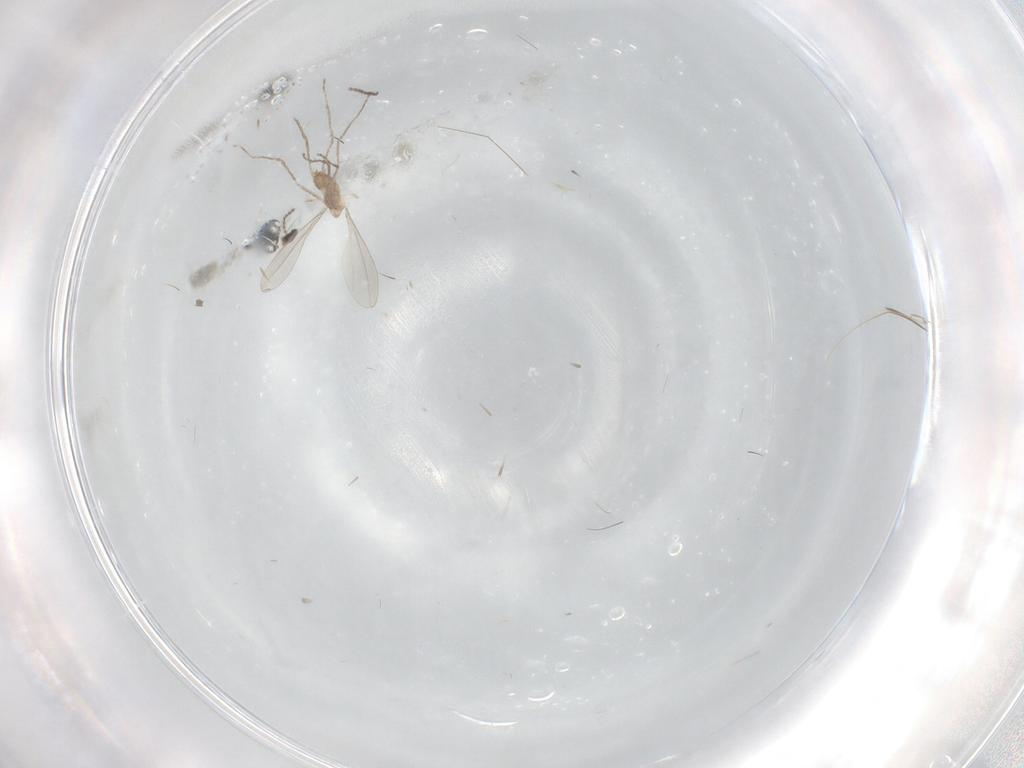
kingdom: Animalia
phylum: Arthropoda
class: Insecta
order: Diptera
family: Cecidomyiidae
